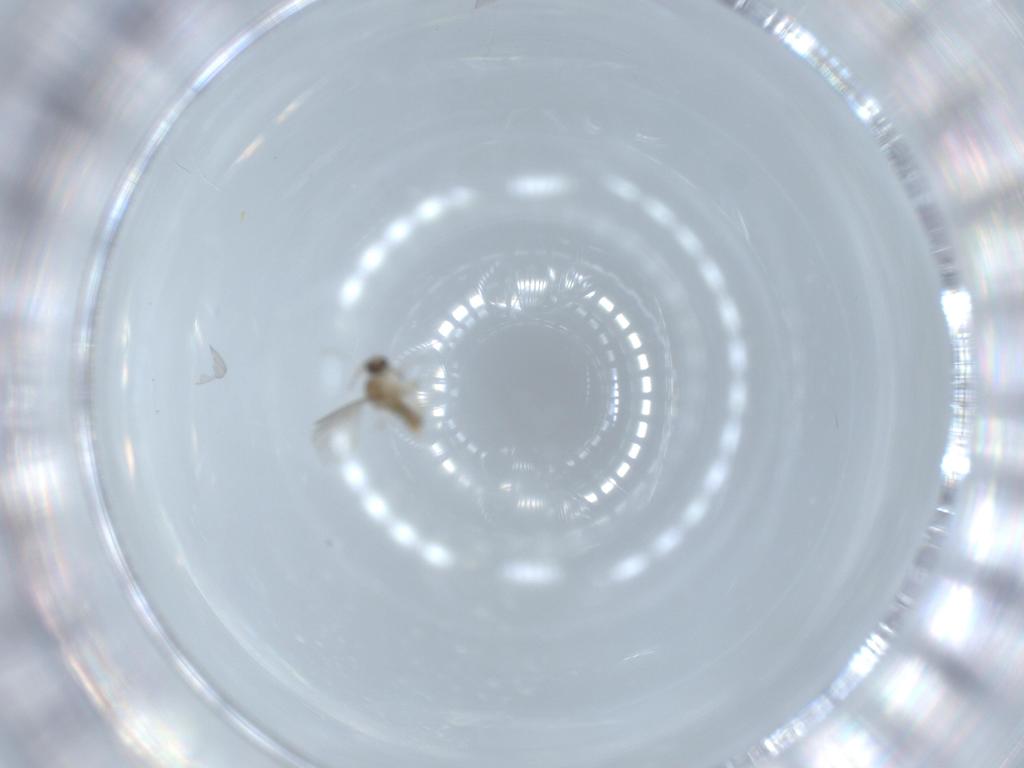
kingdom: Animalia
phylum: Arthropoda
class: Insecta
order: Diptera
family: Cecidomyiidae
